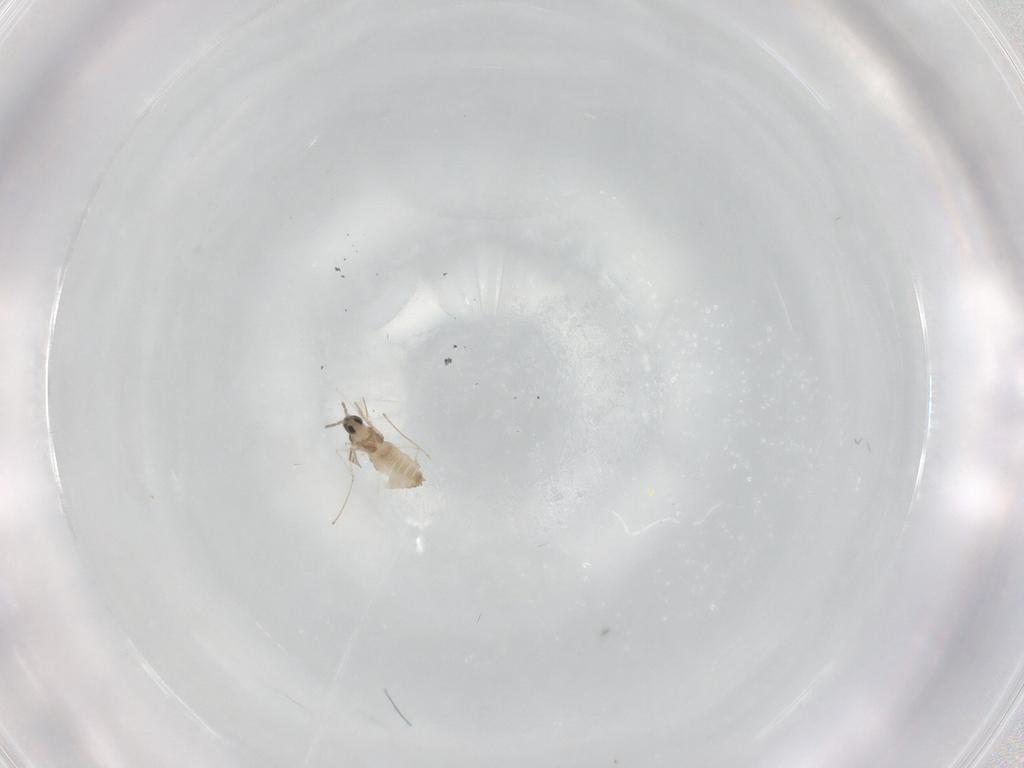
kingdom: Animalia
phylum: Arthropoda
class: Insecta
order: Diptera
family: Cecidomyiidae
